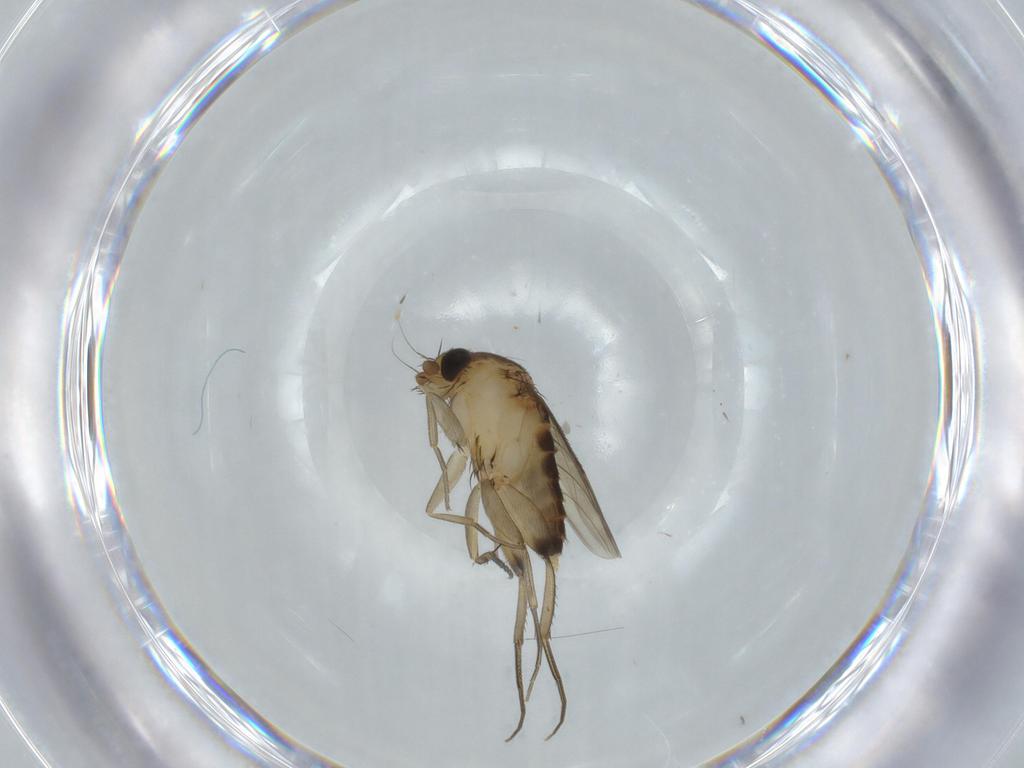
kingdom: Animalia
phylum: Arthropoda
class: Insecta
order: Diptera
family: Phoridae
